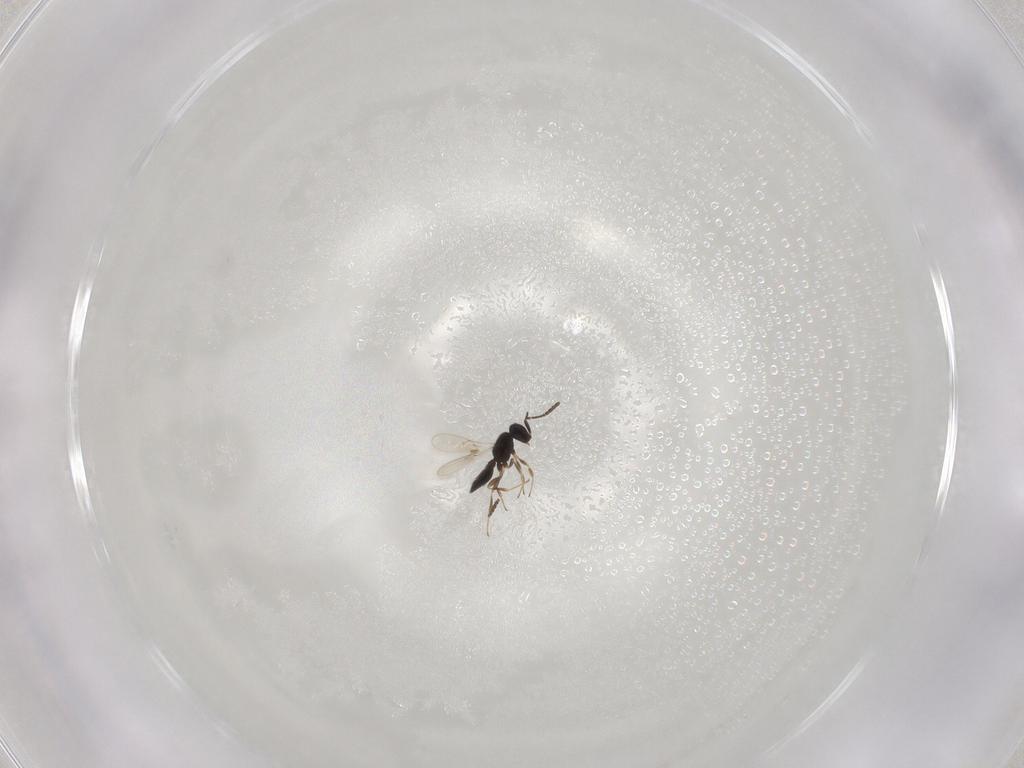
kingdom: Animalia
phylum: Arthropoda
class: Insecta
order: Hymenoptera
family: Scelionidae
